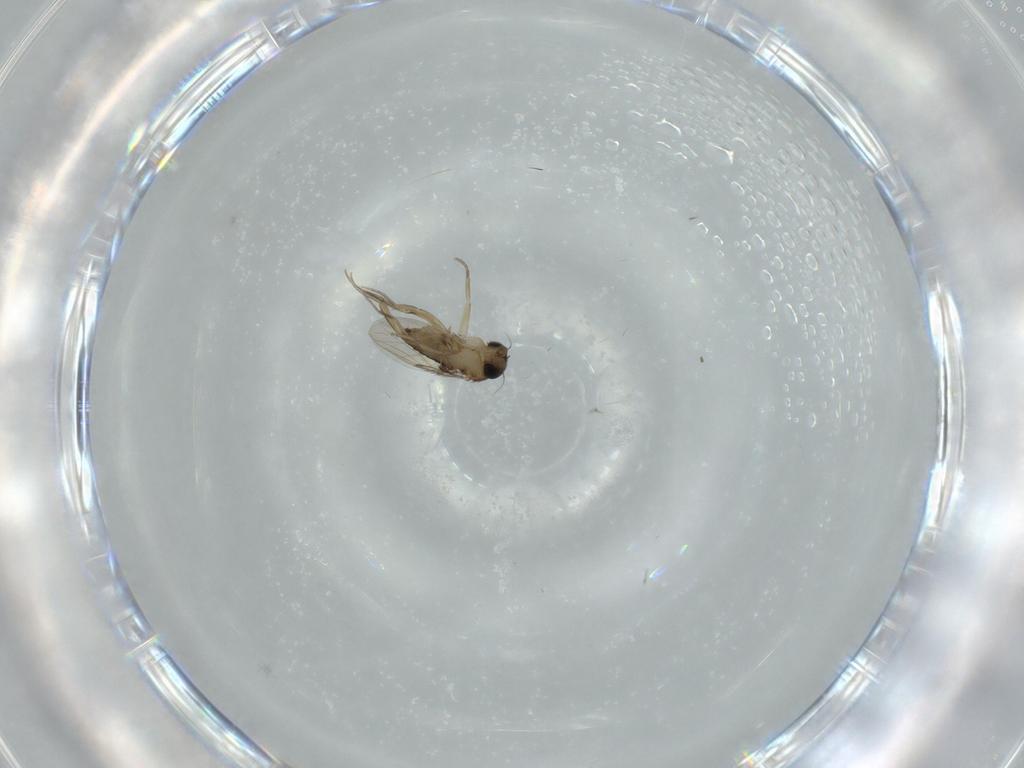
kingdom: Animalia
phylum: Arthropoda
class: Insecta
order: Diptera
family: Phoridae
